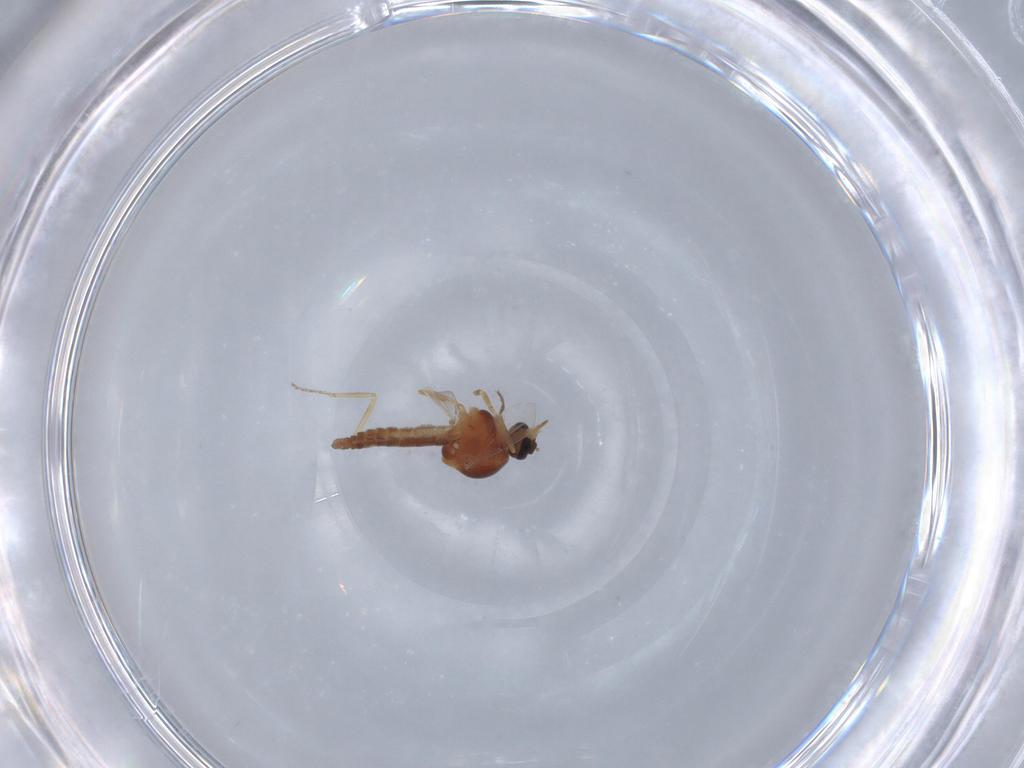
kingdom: Animalia
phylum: Arthropoda
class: Insecta
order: Diptera
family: Ceratopogonidae
